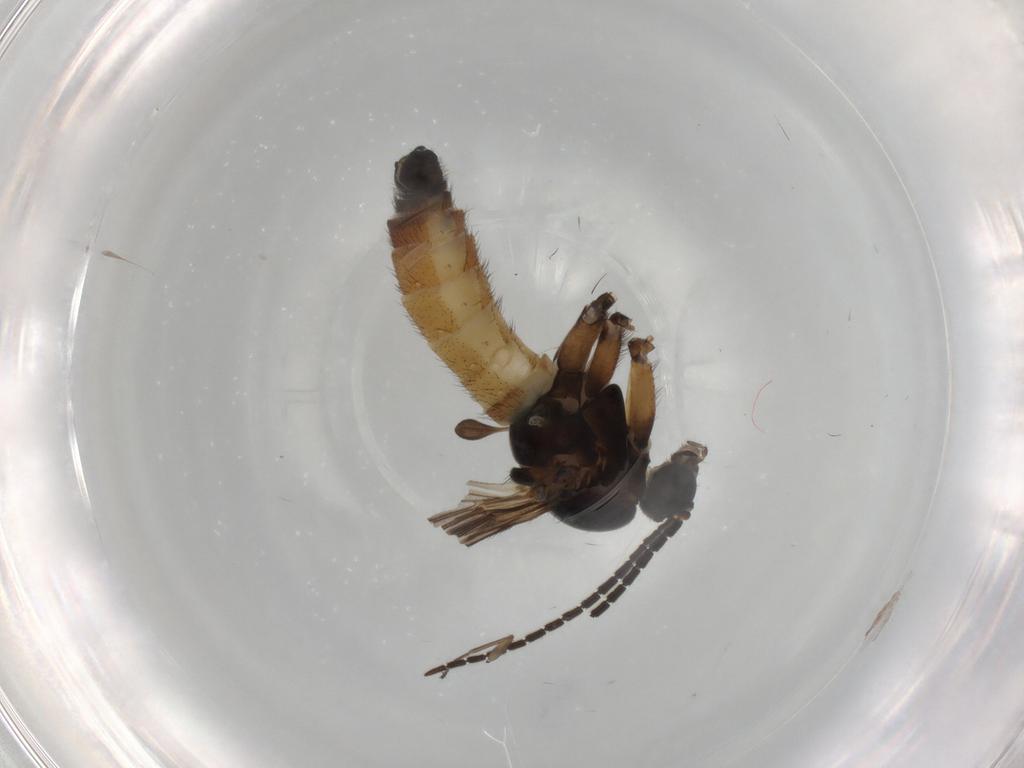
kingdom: Animalia
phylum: Arthropoda
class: Insecta
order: Diptera
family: Sciaridae
